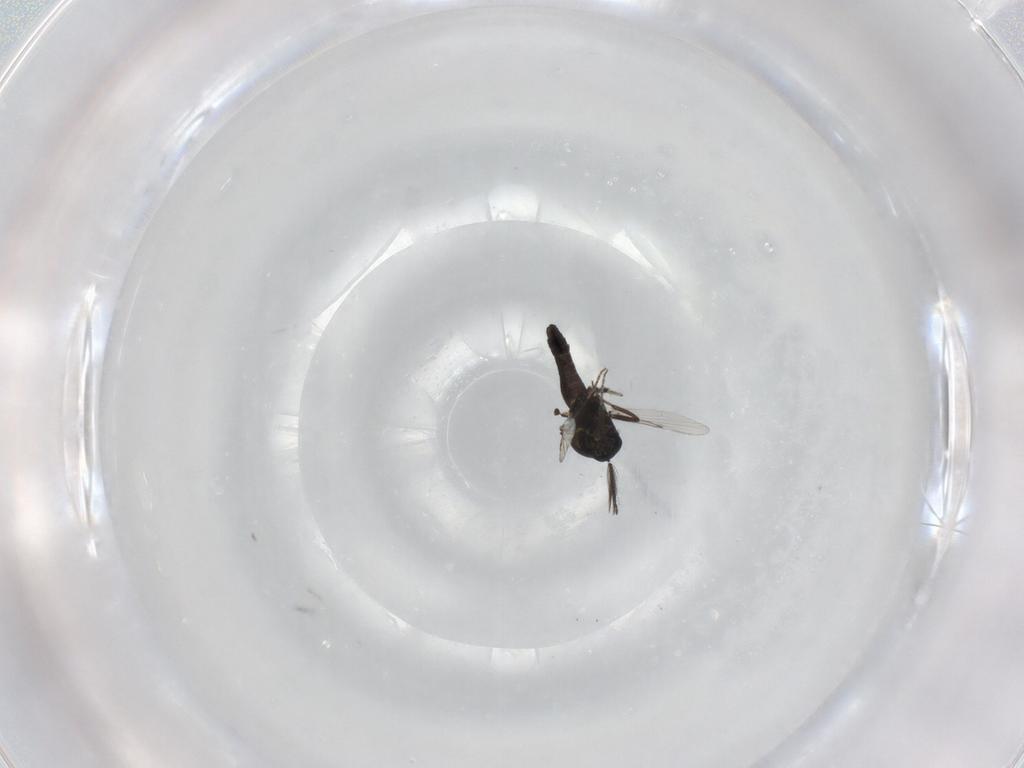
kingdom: Animalia
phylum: Arthropoda
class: Insecta
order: Diptera
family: Ceratopogonidae
